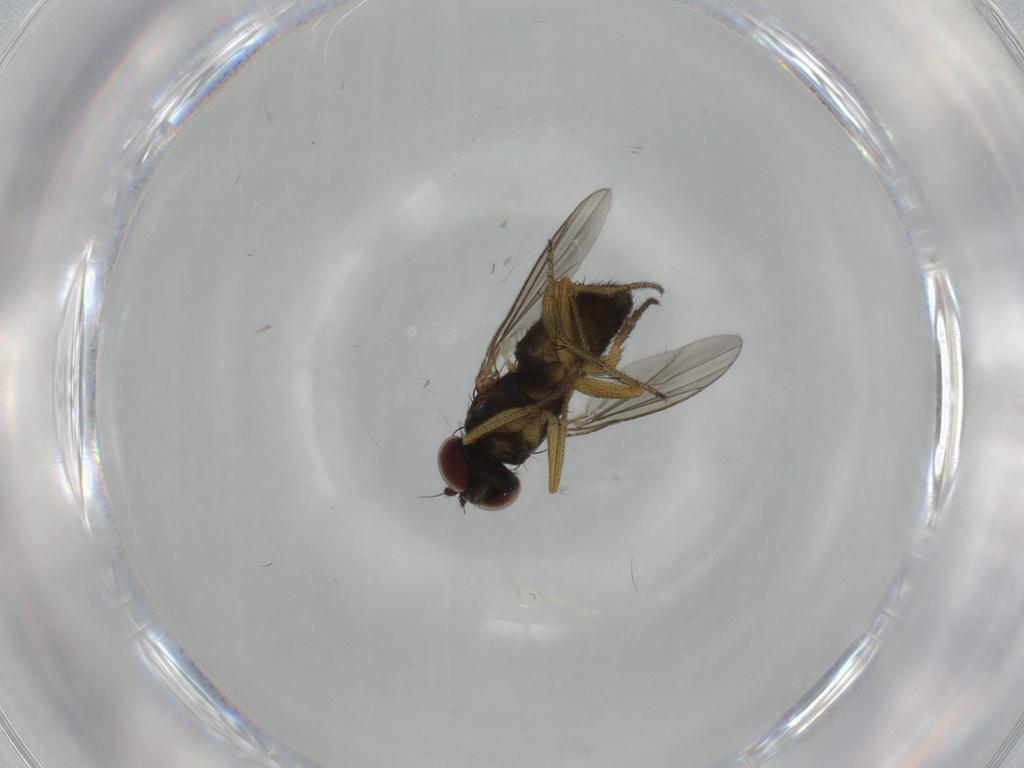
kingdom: Animalia
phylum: Arthropoda
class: Insecta
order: Diptera
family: Dolichopodidae
